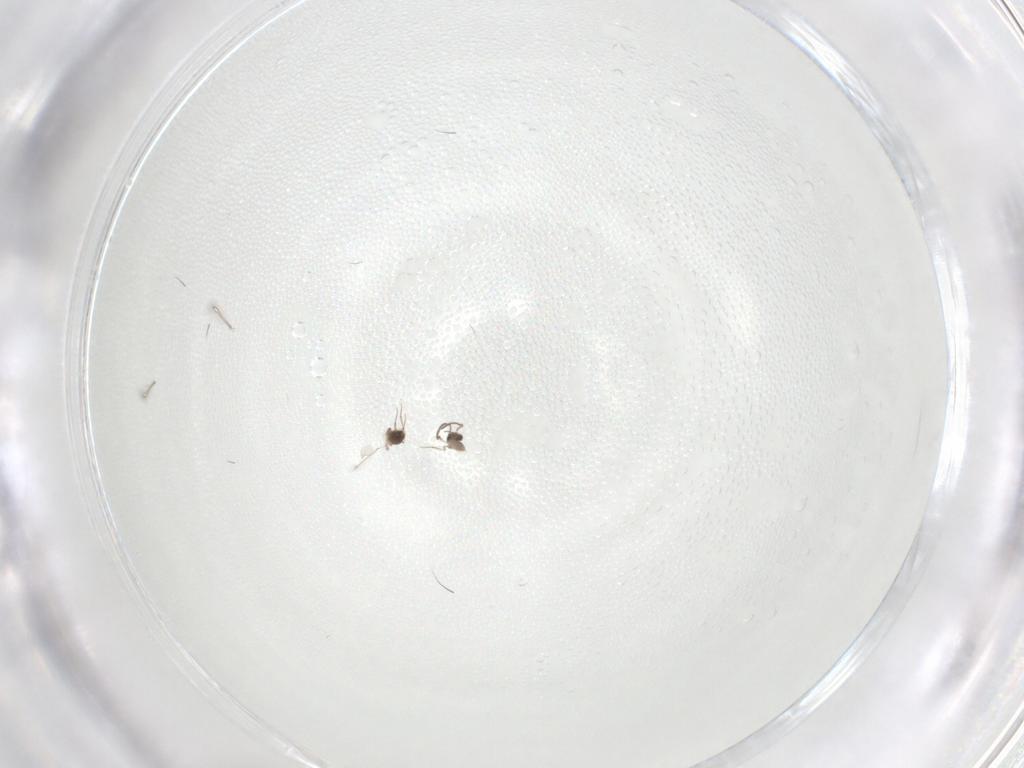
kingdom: Animalia
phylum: Arthropoda
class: Insecta
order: Hymenoptera
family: Mymaridae
